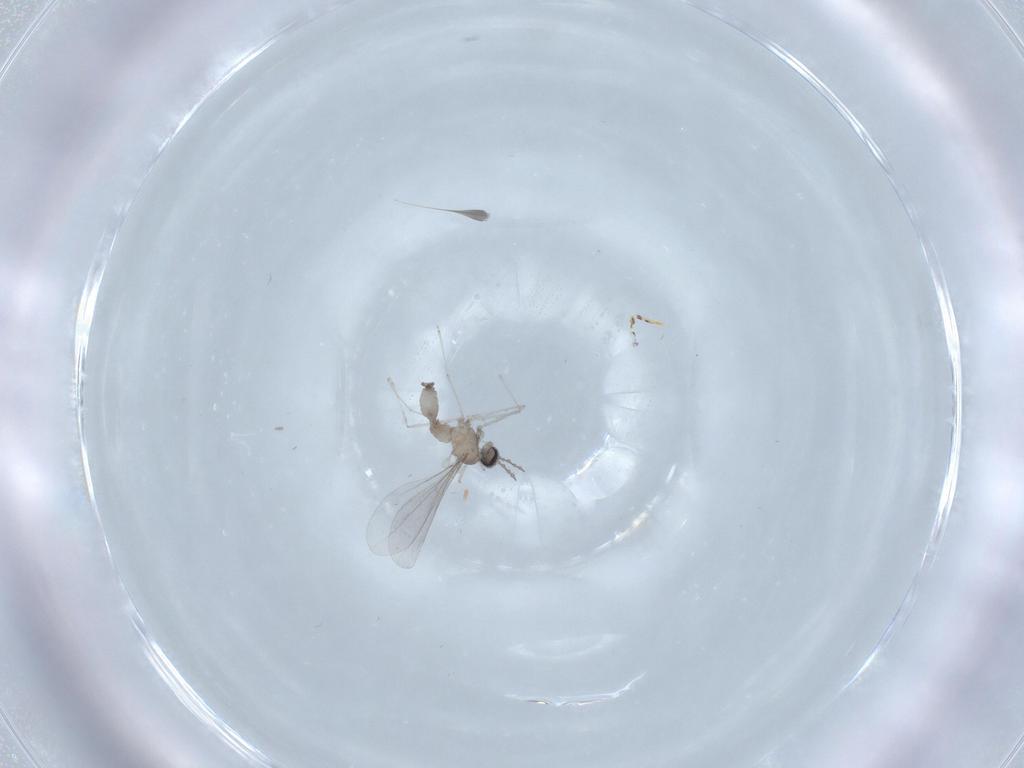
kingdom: Animalia
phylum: Arthropoda
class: Insecta
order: Diptera
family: Cecidomyiidae
